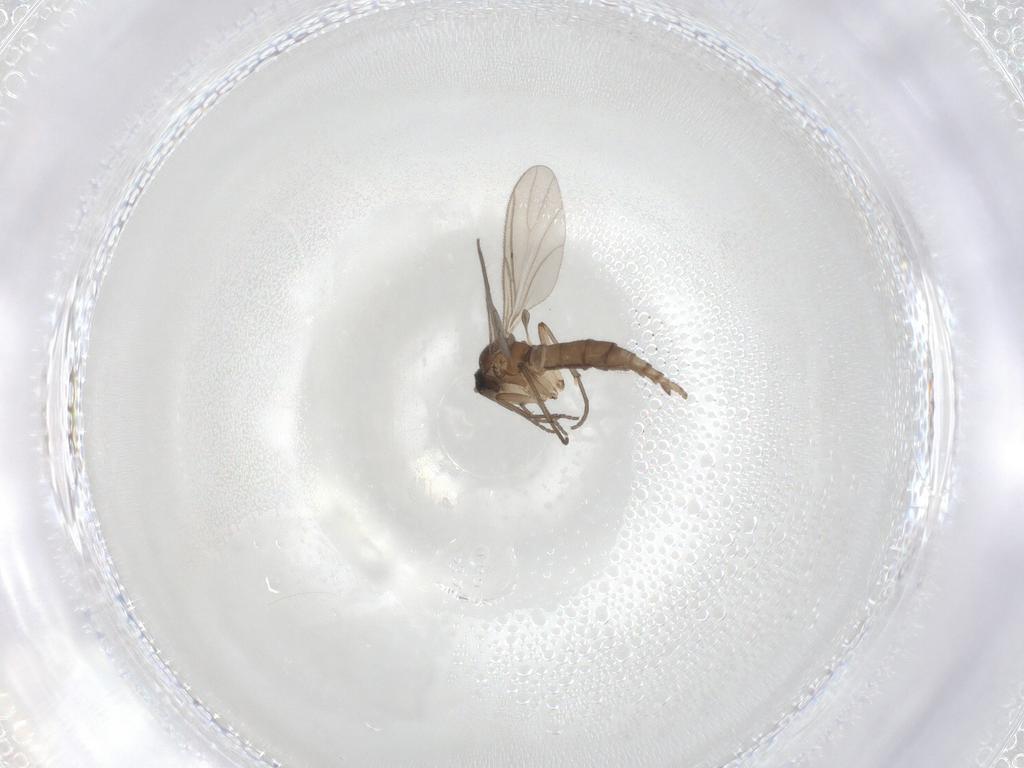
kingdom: Animalia
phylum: Arthropoda
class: Insecta
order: Diptera
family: Sciaridae
